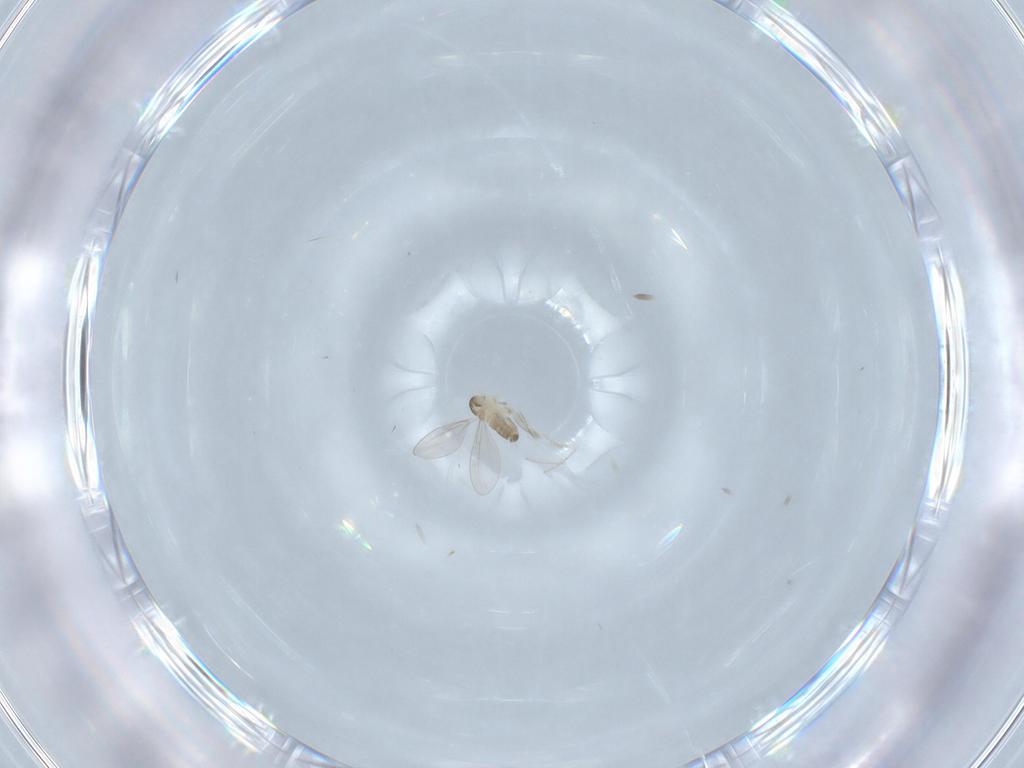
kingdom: Animalia
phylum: Arthropoda
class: Insecta
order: Diptera
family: Cecidomyiidae
